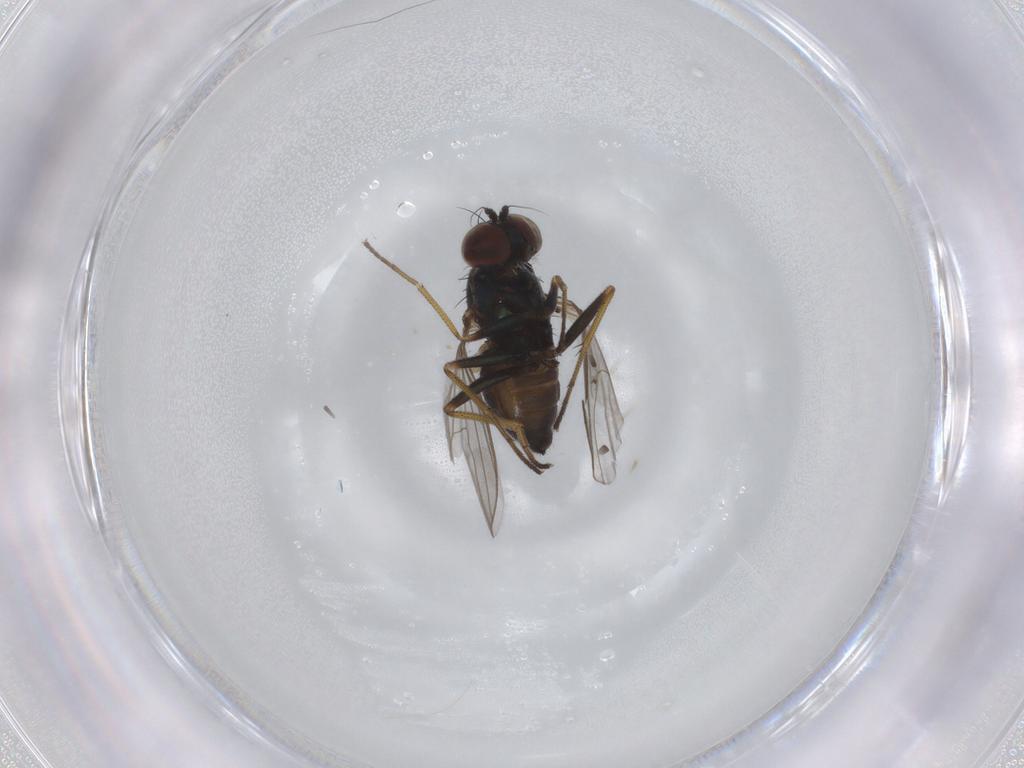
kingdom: Animalia
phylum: Arthropoda
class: Insecta
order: Diptera
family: Dolichopodidae
